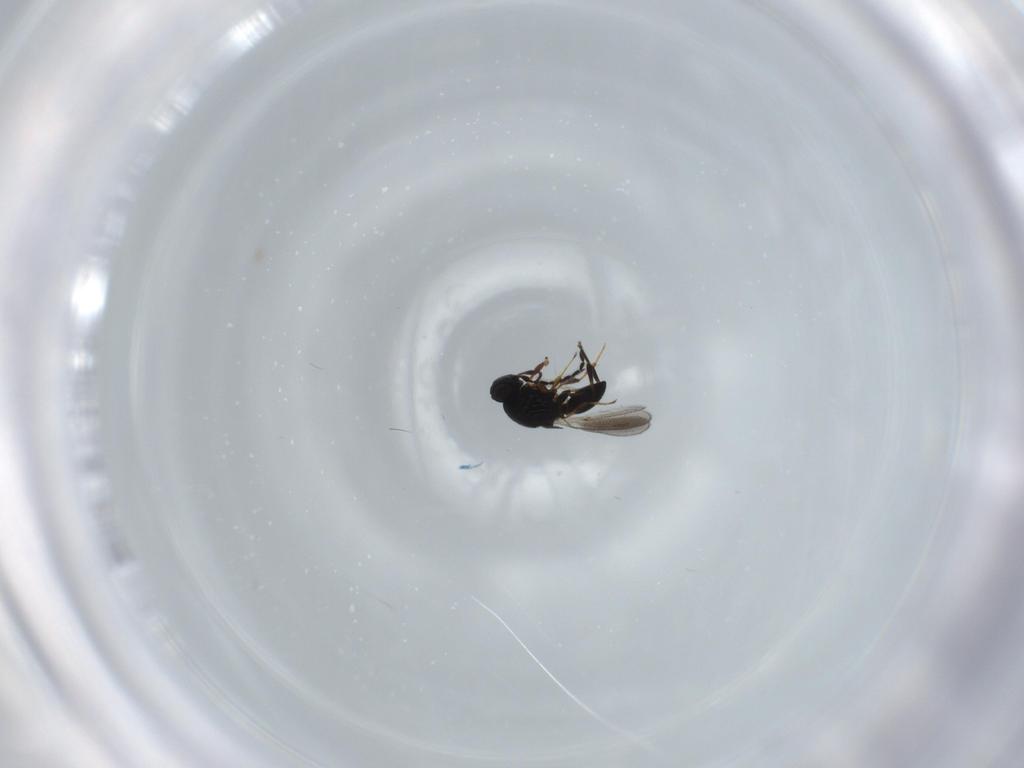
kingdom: Animalia
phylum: Arthropoda
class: Insecta
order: Hymenoptera
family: Platygastridae
